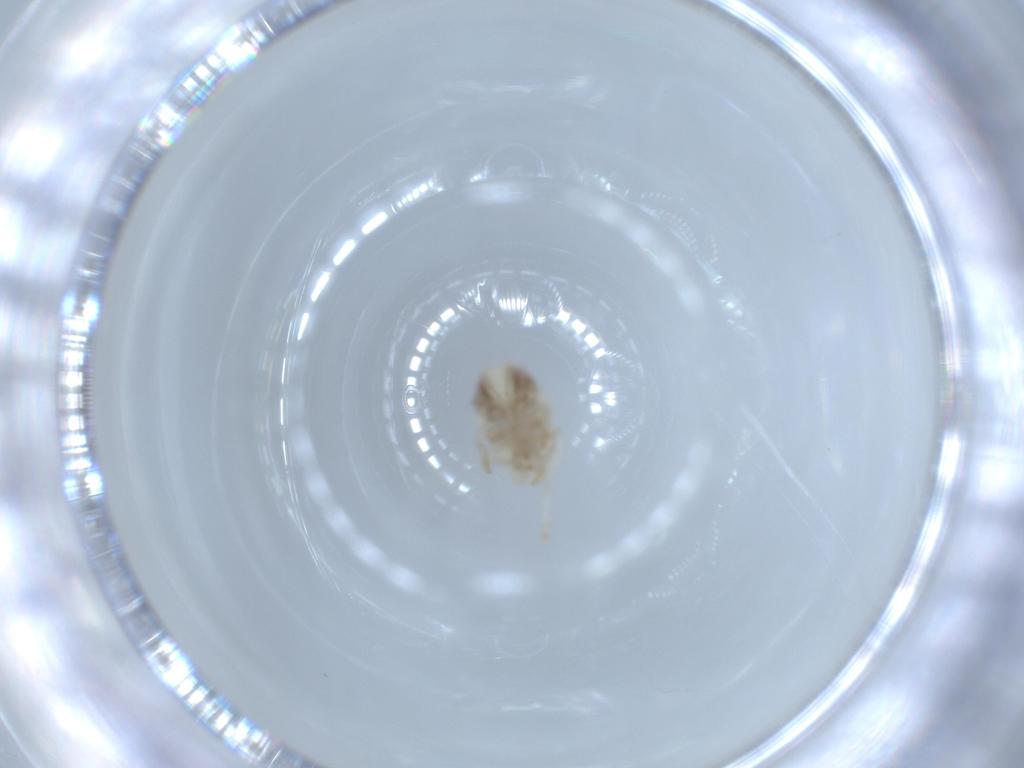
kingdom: Animalia
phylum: Arthropoda
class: Insecta
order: Hemiptera
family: Acanaloniidae
